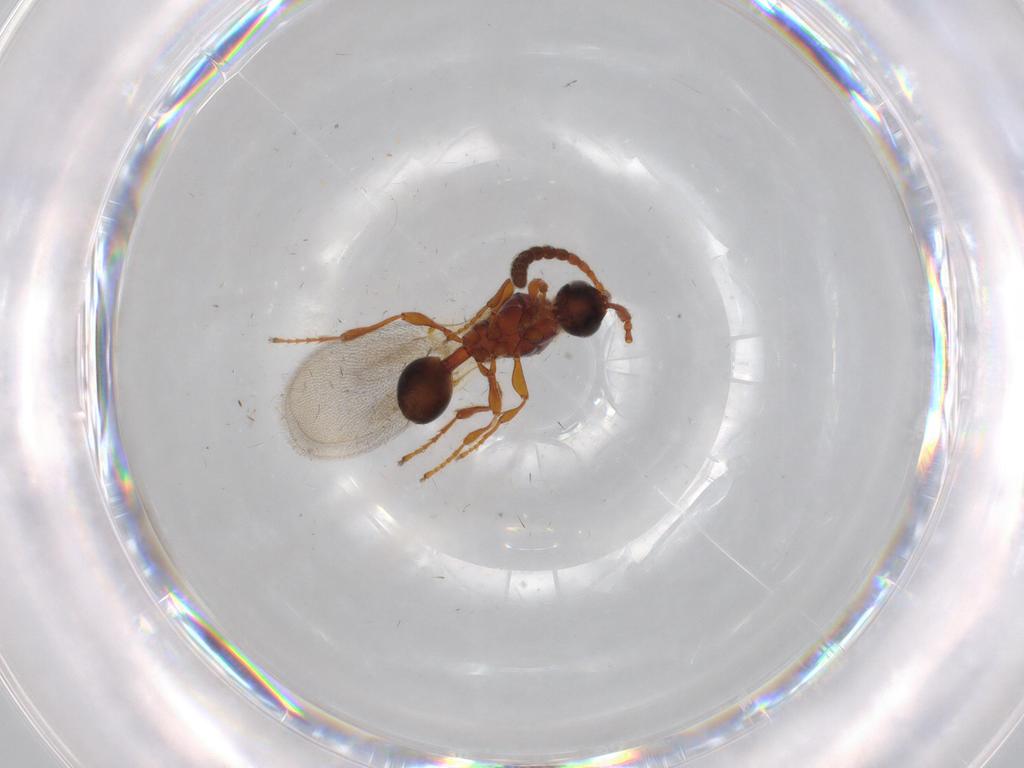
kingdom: Animalia
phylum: Arthropoda
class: Insecta
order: Hymenoptera
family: Diapriidae
